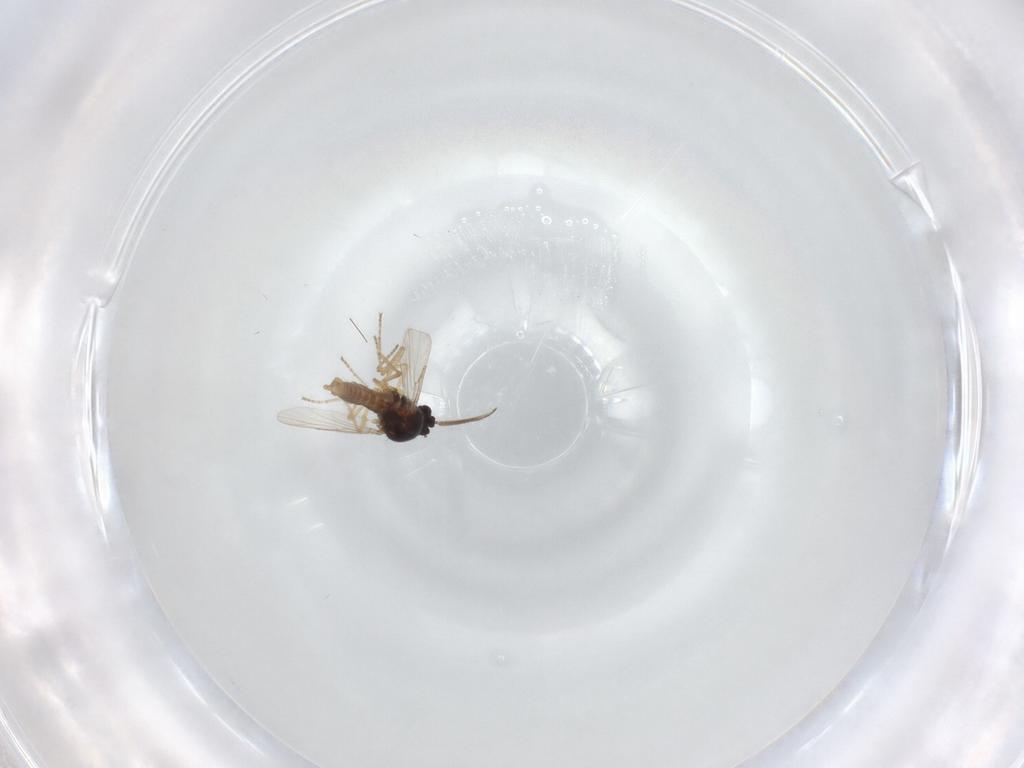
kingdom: Animalia
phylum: Arthropoda
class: Insecta
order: Diptera
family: Ceratopogonidae
